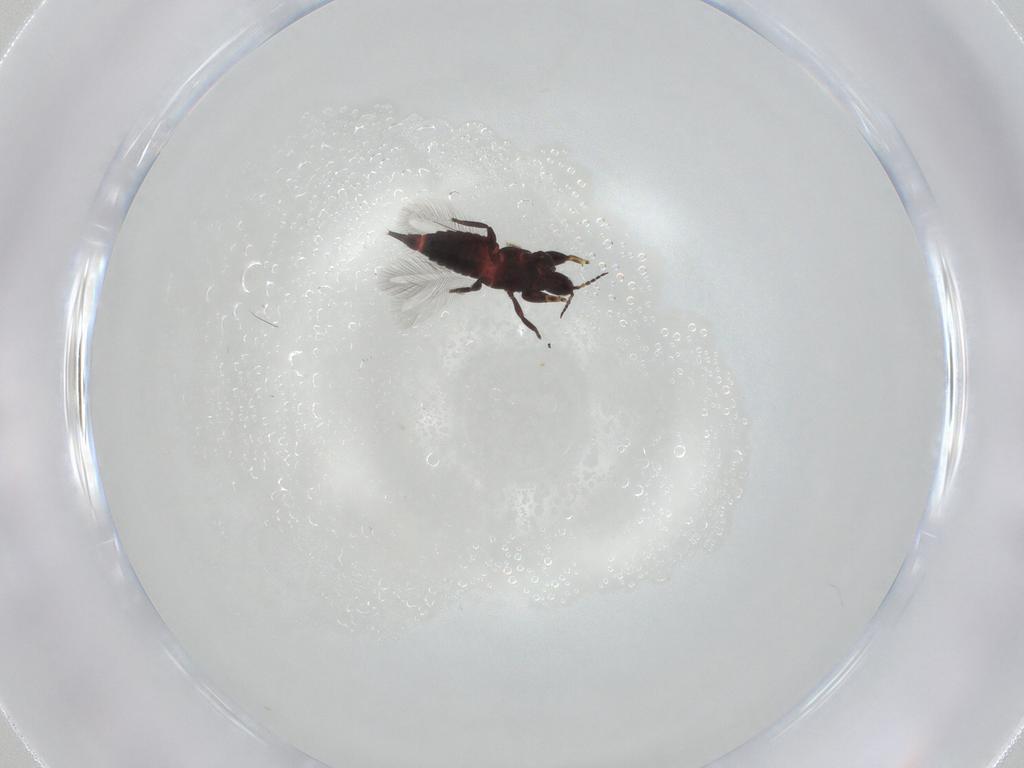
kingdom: Animalia
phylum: Arthropoda
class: Insecta
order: Thysanoptera
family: Phlaeothripidae
